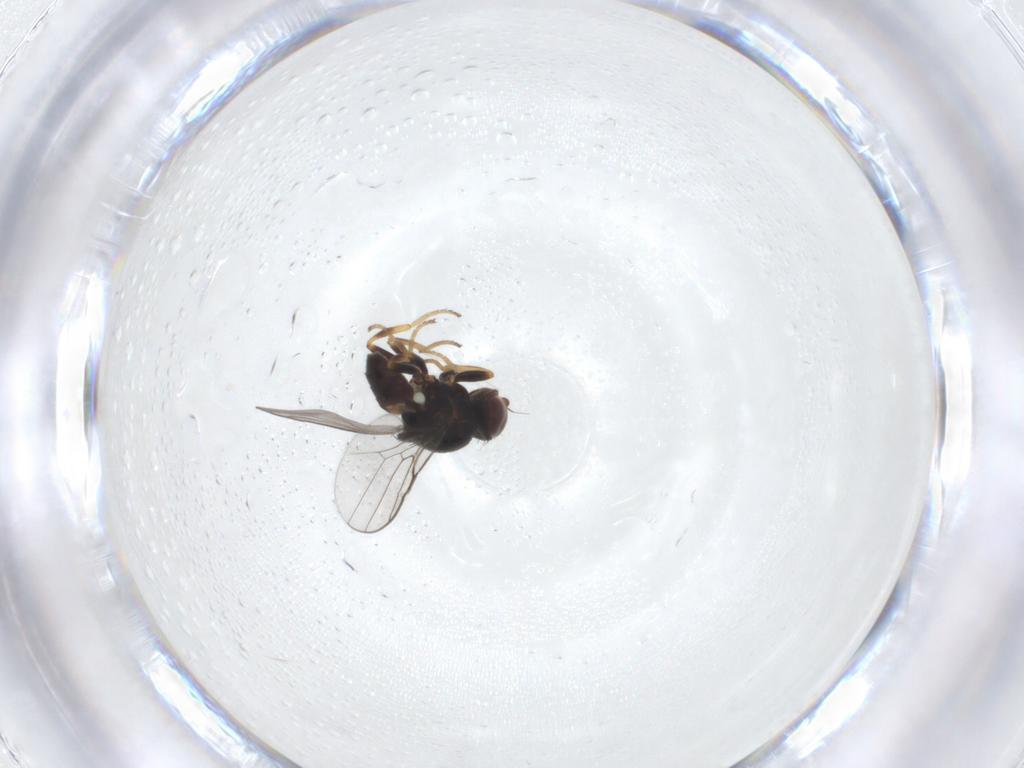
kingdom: Animalia
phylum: Arthropoda
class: Insecta
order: Diptera
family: Chloropidae
